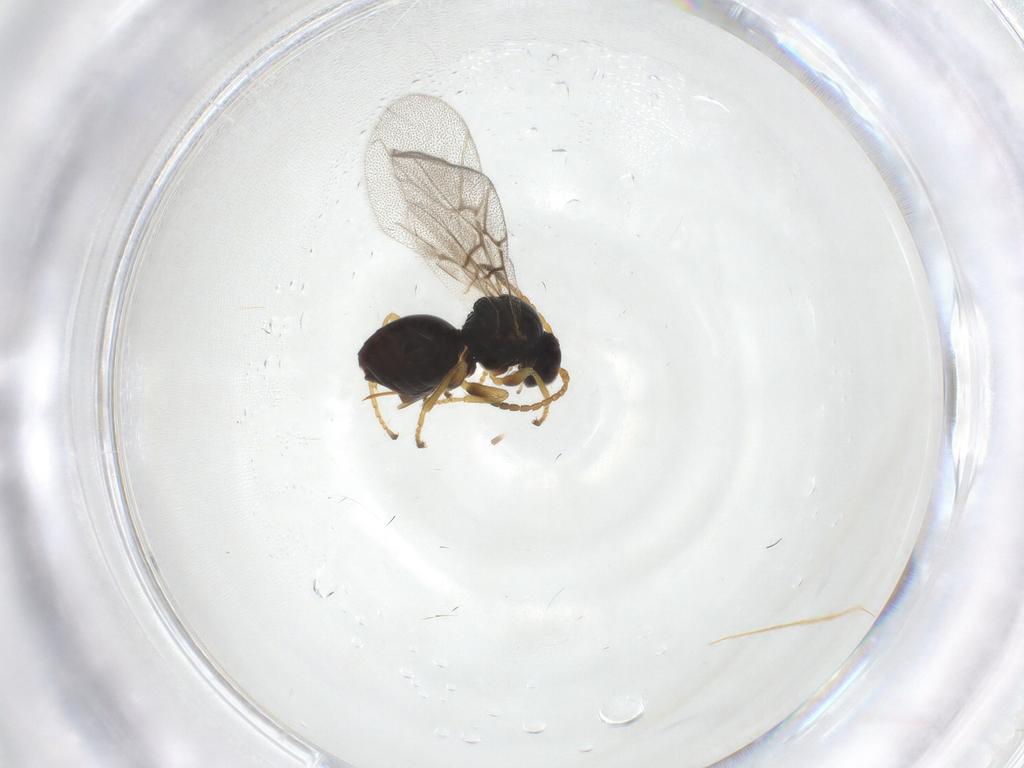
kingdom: Animalia
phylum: Arthropoda
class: Insecta
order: Hymenoptera
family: Cynipidae
